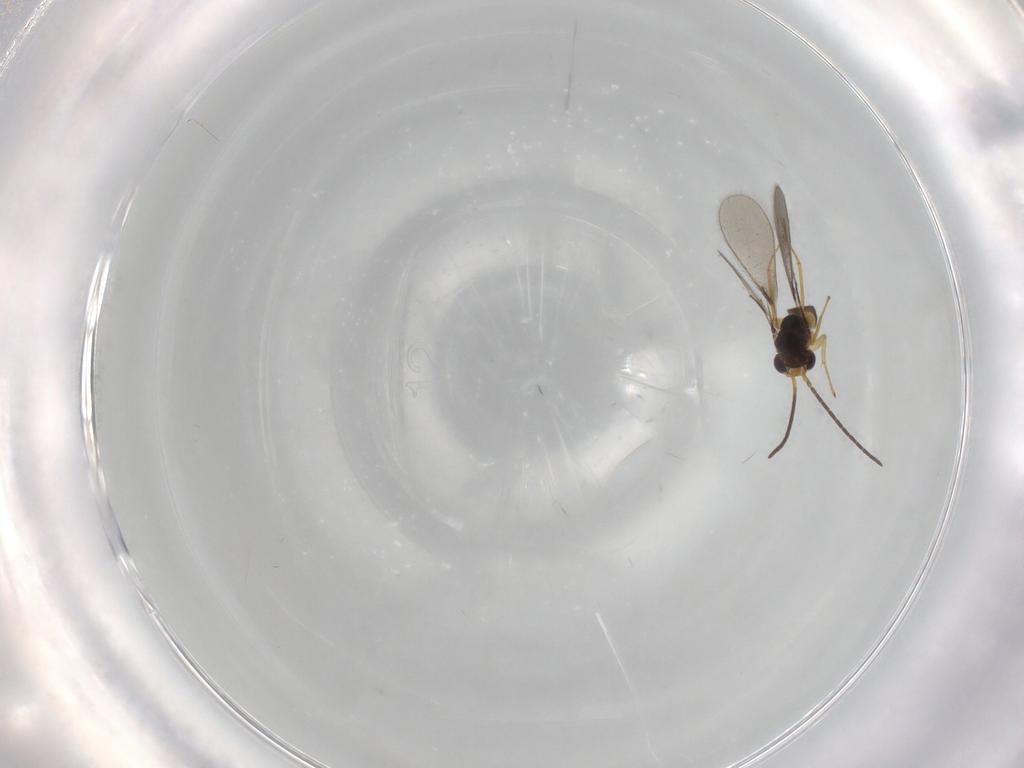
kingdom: Animalia
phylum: Arthropoda
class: Insecta
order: Hymenoptera
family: Mymaridae
